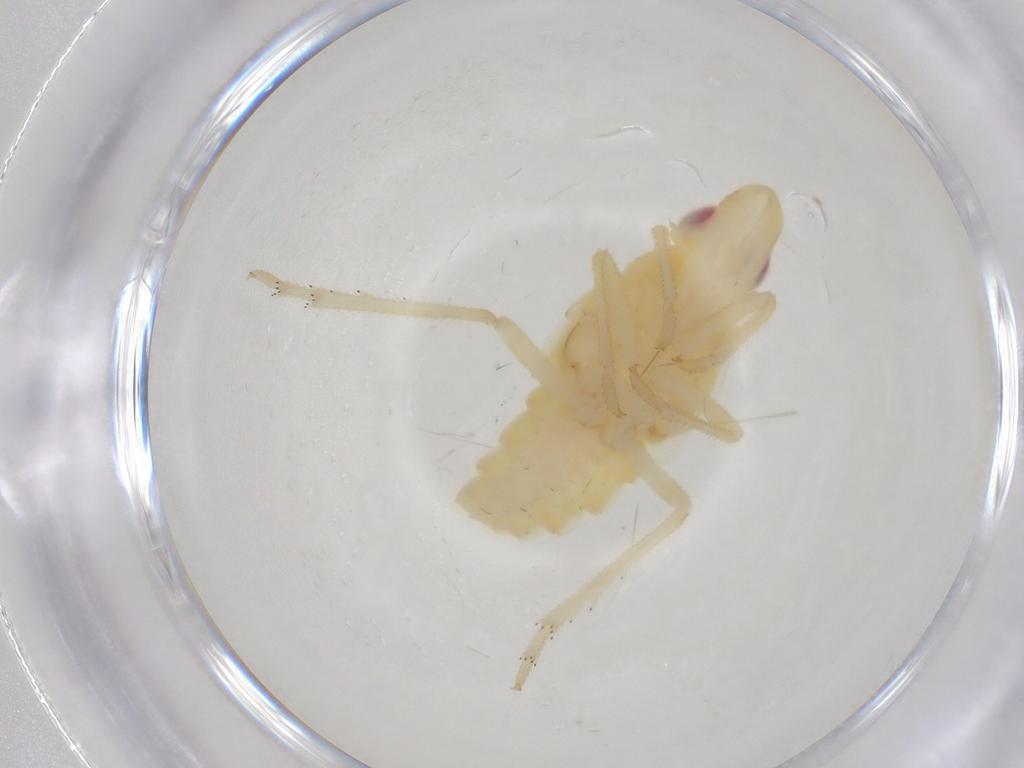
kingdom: Animalia
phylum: Arthropoda
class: Insecta
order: Hemiptera
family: Tropiduchidae
